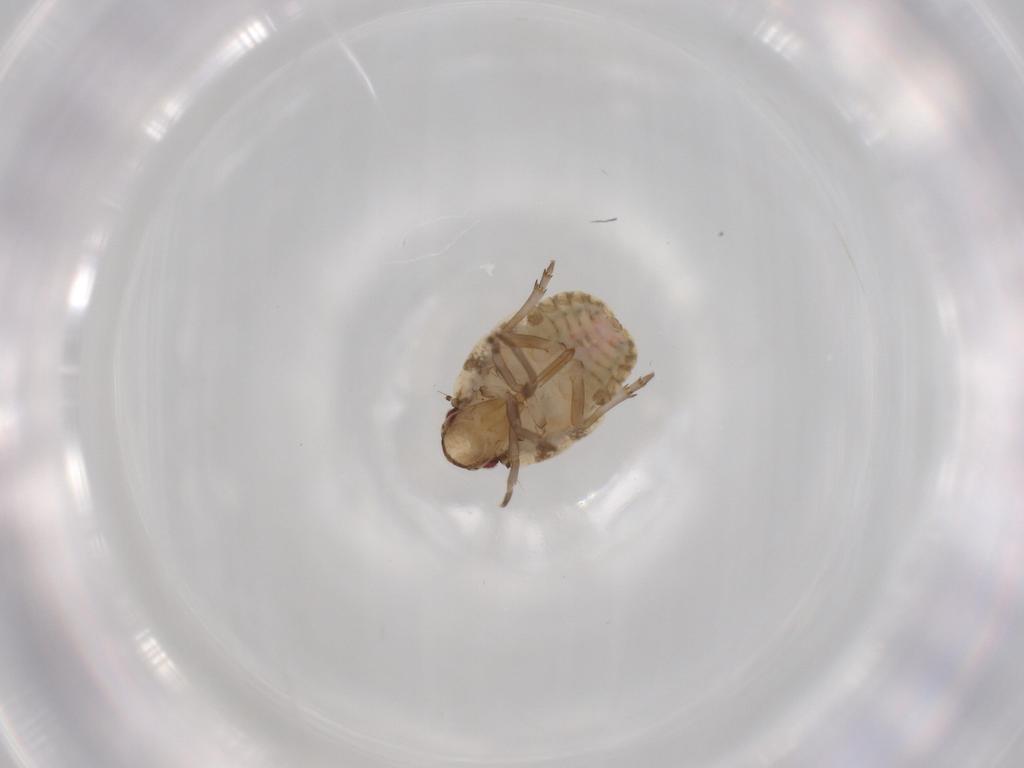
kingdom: Animalia
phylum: Arthropoda
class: Insecta
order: Hemiptera
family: Flatidae
